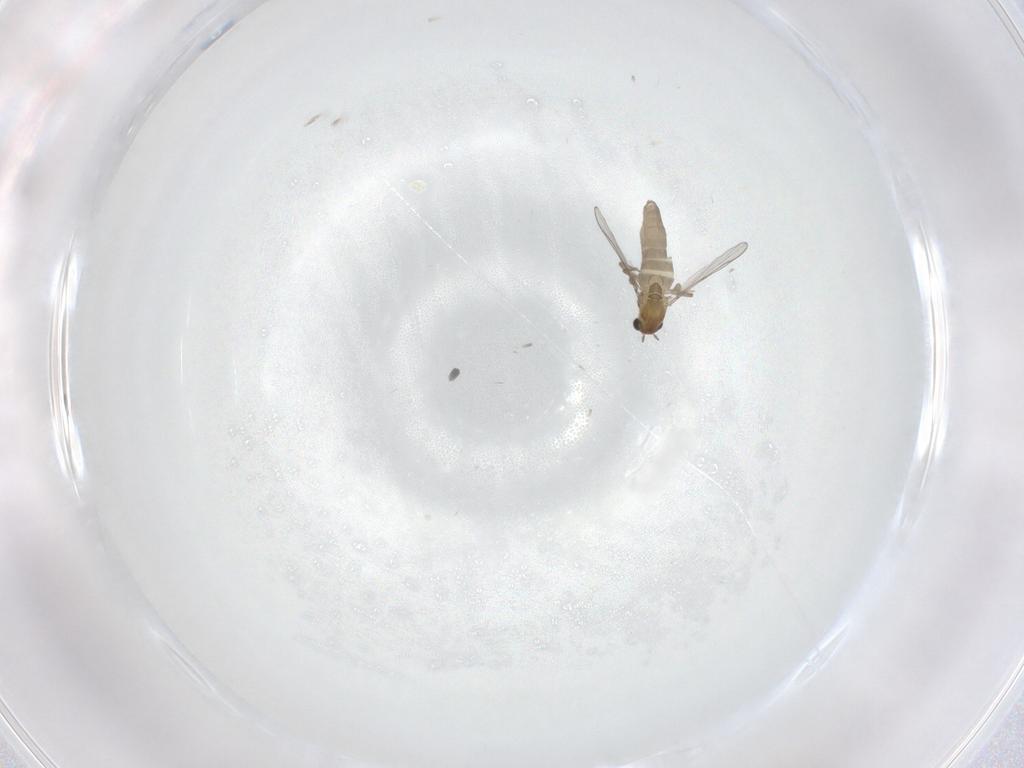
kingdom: Animalia
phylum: Arthropoda
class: Insecta
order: Diptera
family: Chironomidae
